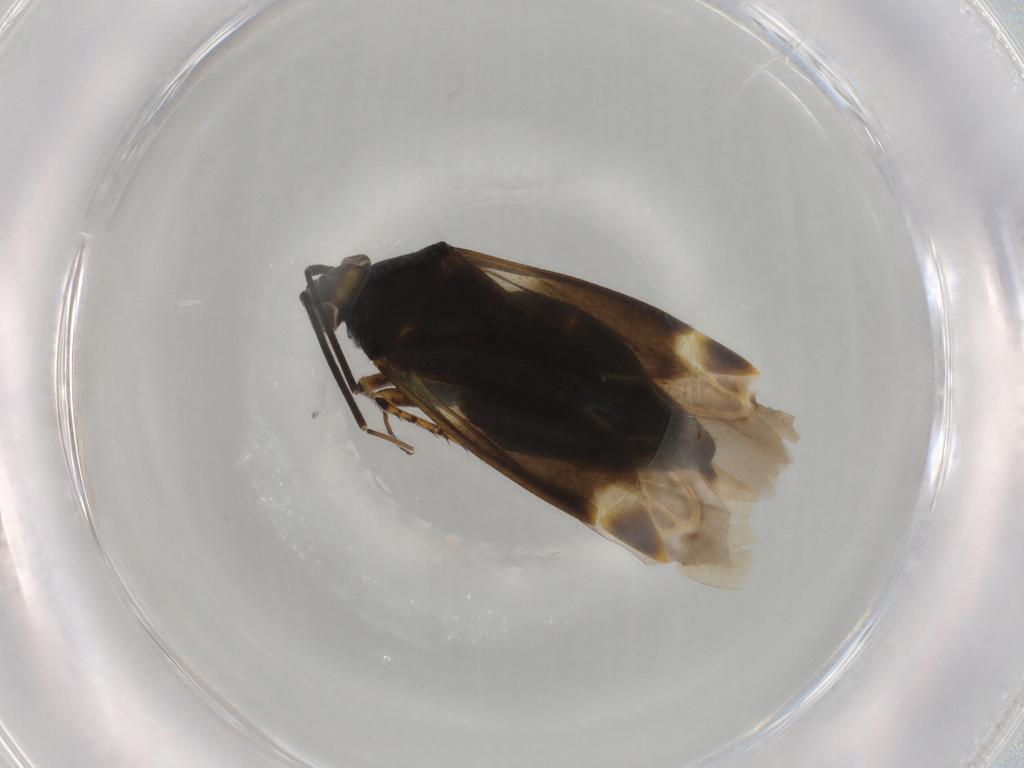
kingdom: Animalia
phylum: Arthropoda
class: Insecta
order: Hemiptera
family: Miridae
